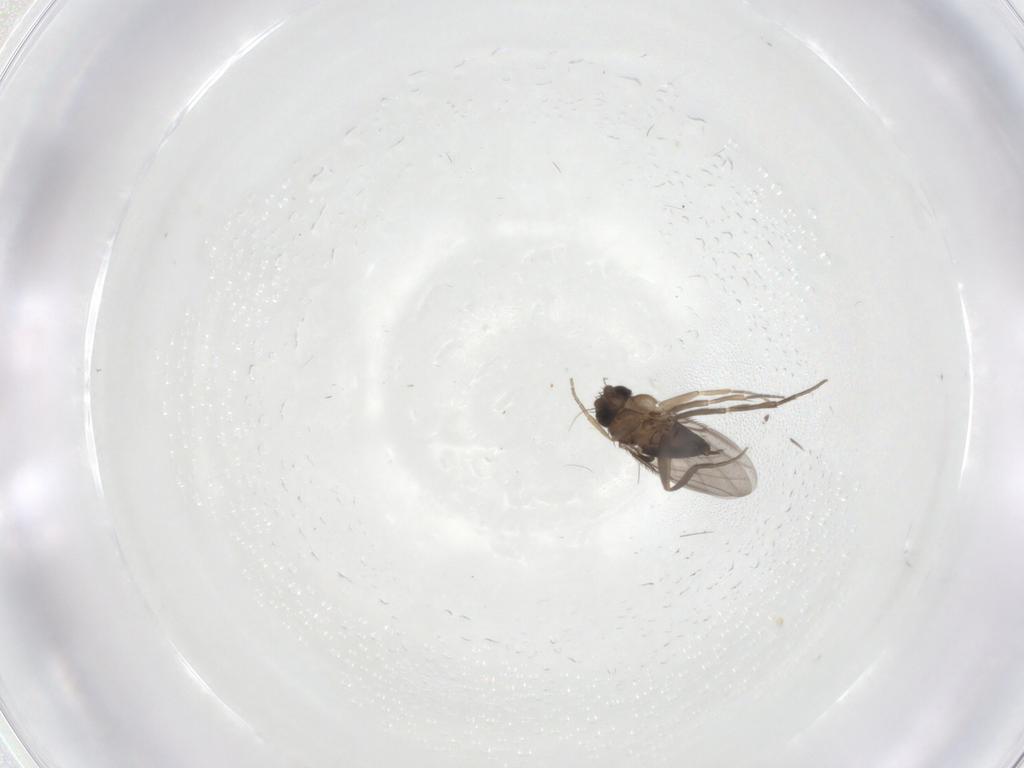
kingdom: Animalia
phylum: Arthropoda
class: Insecta
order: Diptera
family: Phoridae
